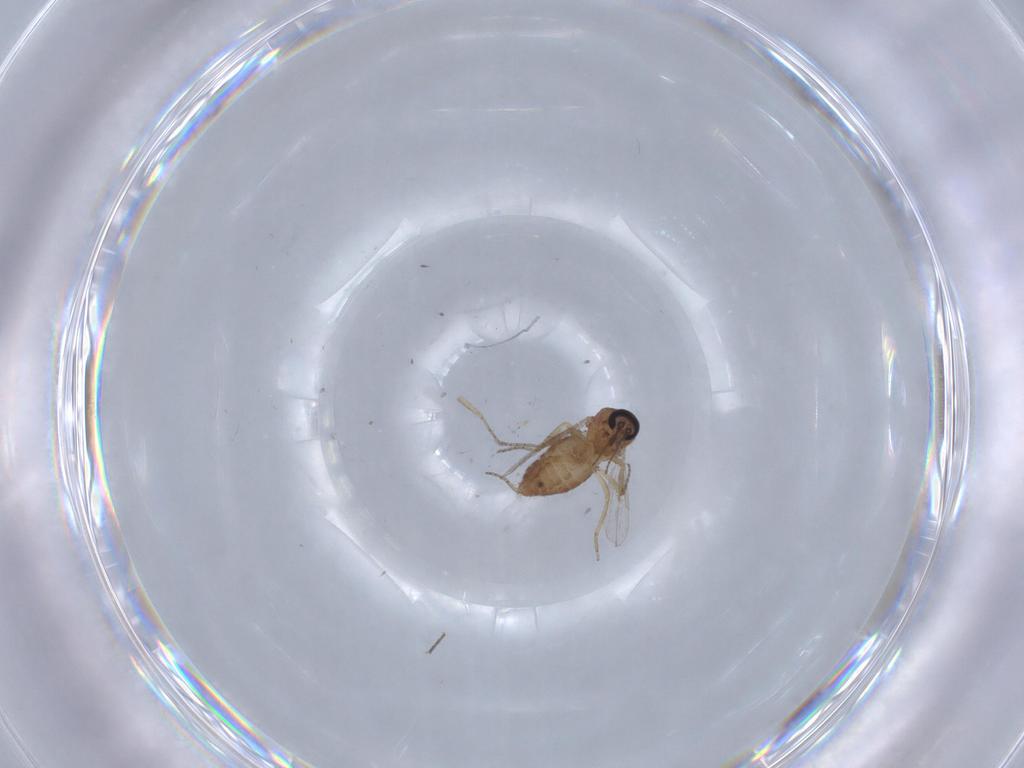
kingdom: Animalia
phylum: Arthropoda
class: Insecta
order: Diptera
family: Ceratopogonidae
